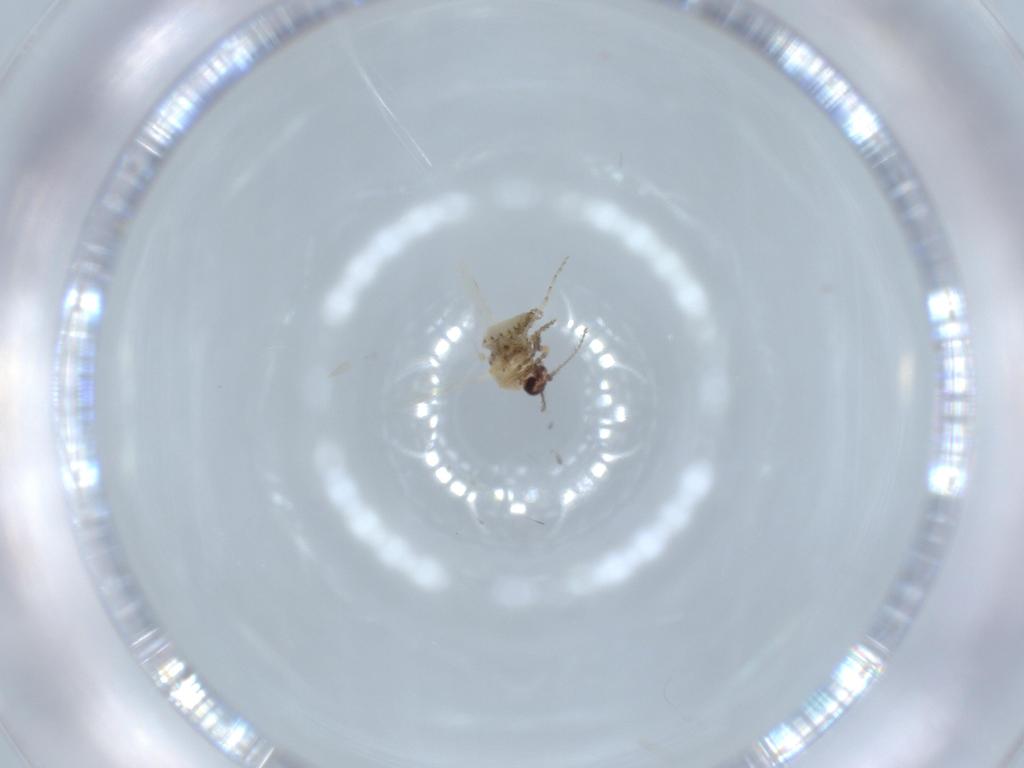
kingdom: Animalia
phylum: Arthropoda
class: Insecta
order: Diptera
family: Ceratopogonidae
